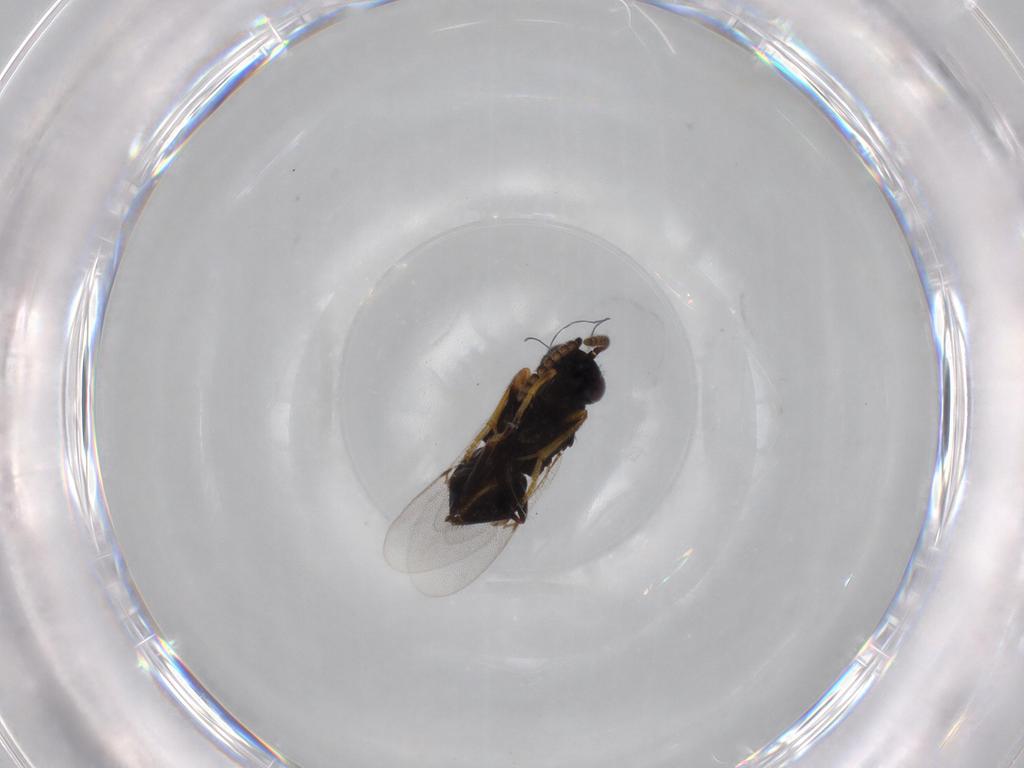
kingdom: Animalia
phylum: Arthropoda
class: Insecta
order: Hymenoptera
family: Encyrtidae
